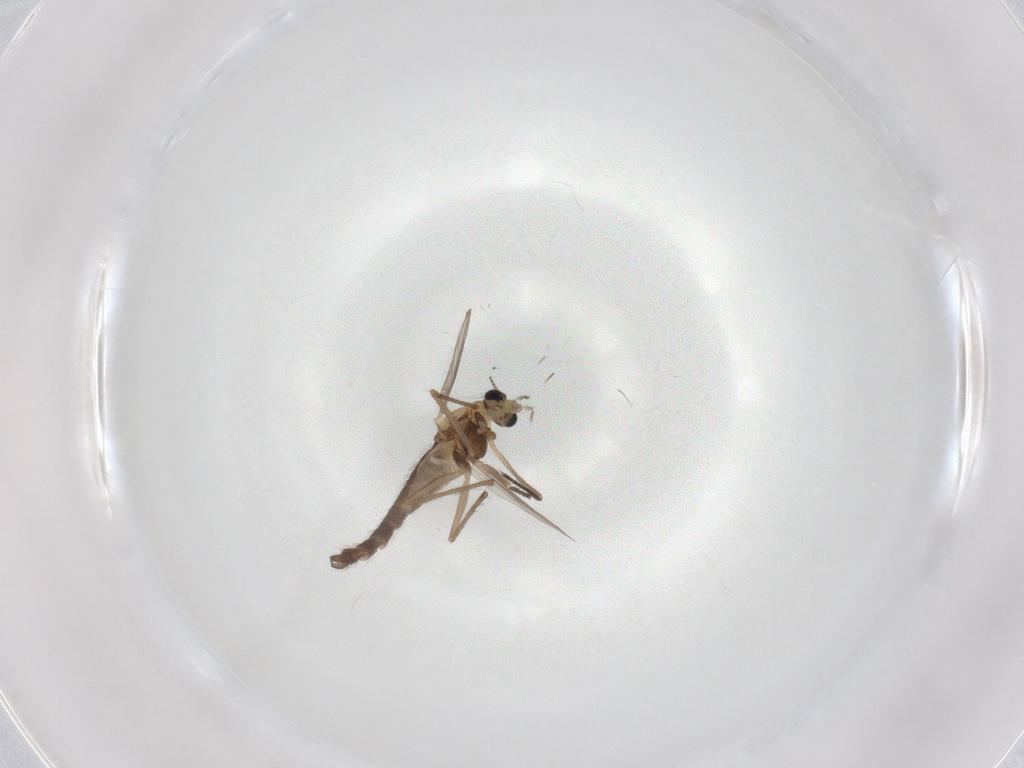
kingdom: Animalia
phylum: Arthropoda
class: Insecta
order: Diptera
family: Chironomidae
